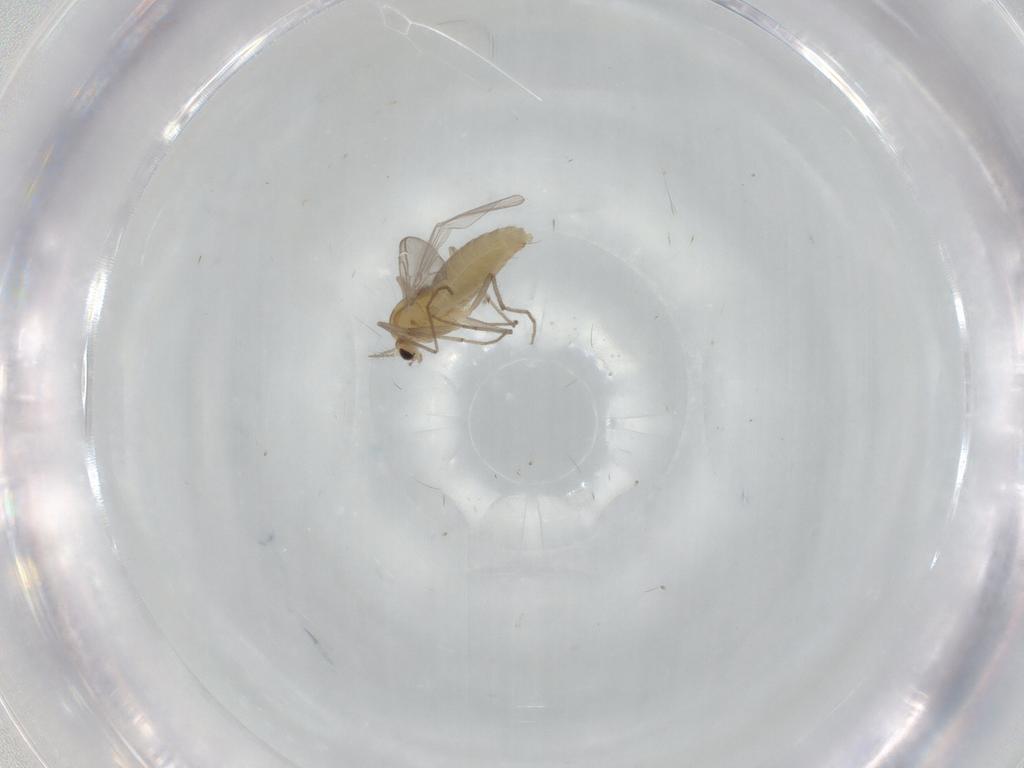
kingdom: Animalia
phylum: Arthropoda
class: Insecta
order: Diptera
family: Chironomidae
